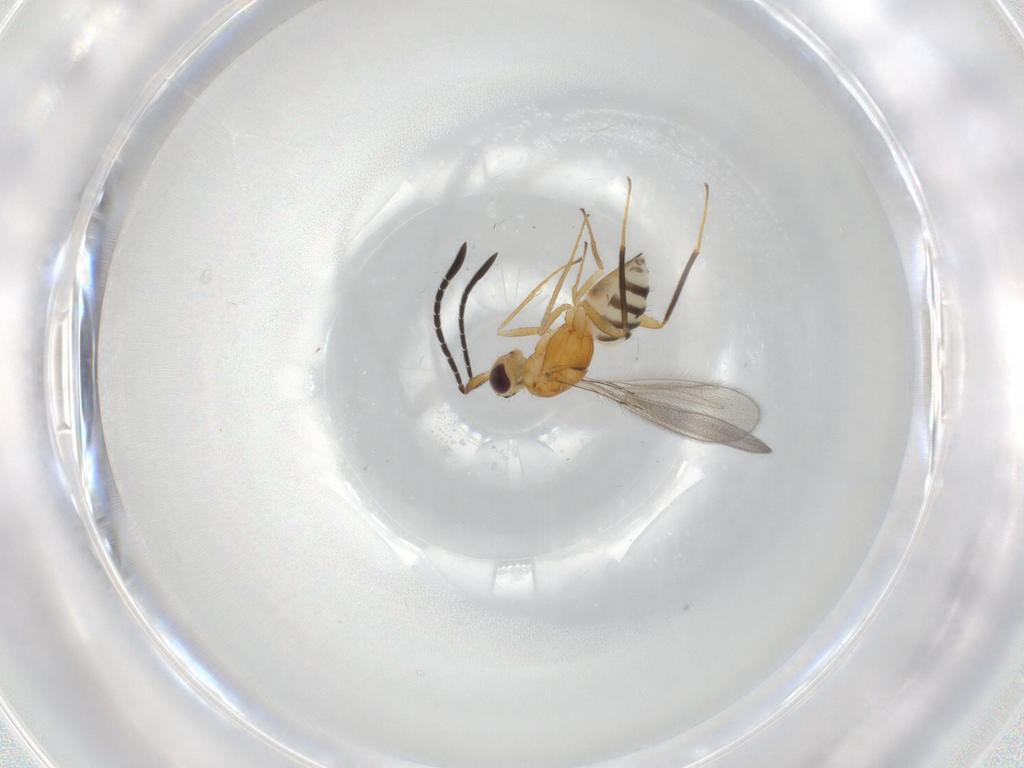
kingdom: Animalia
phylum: Arthropoda
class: Insecta
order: Hymenoptera
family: Mymaridae
